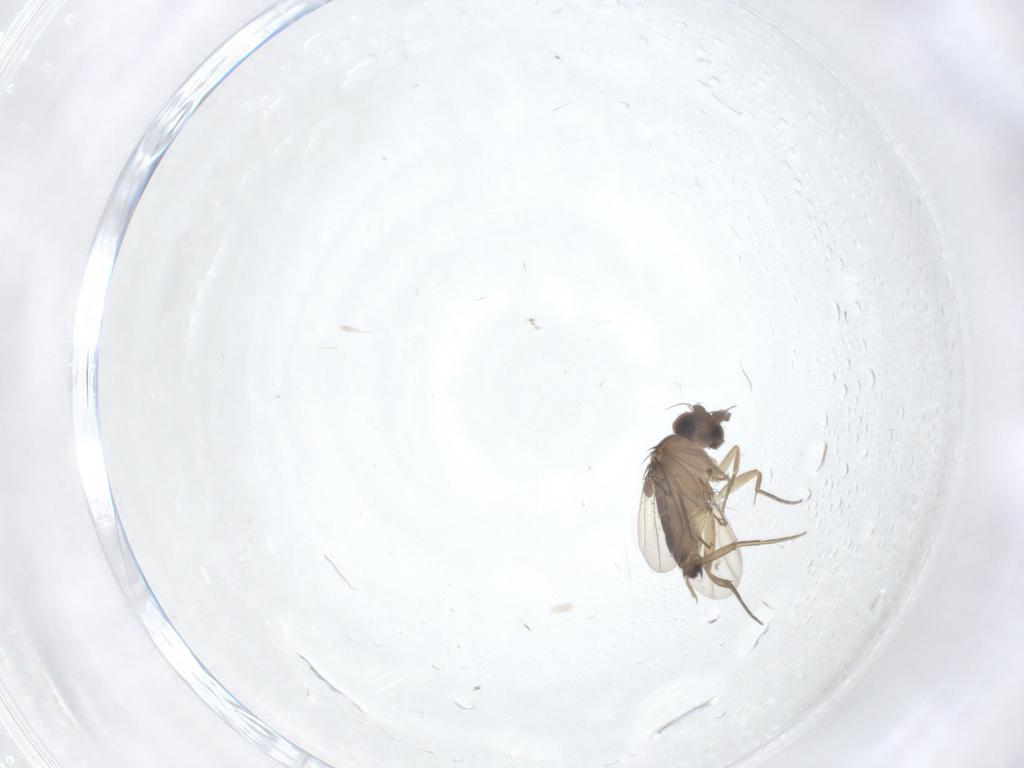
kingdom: Animalia
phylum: Arthropoda
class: Insecta
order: Diptera
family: Phoridae
